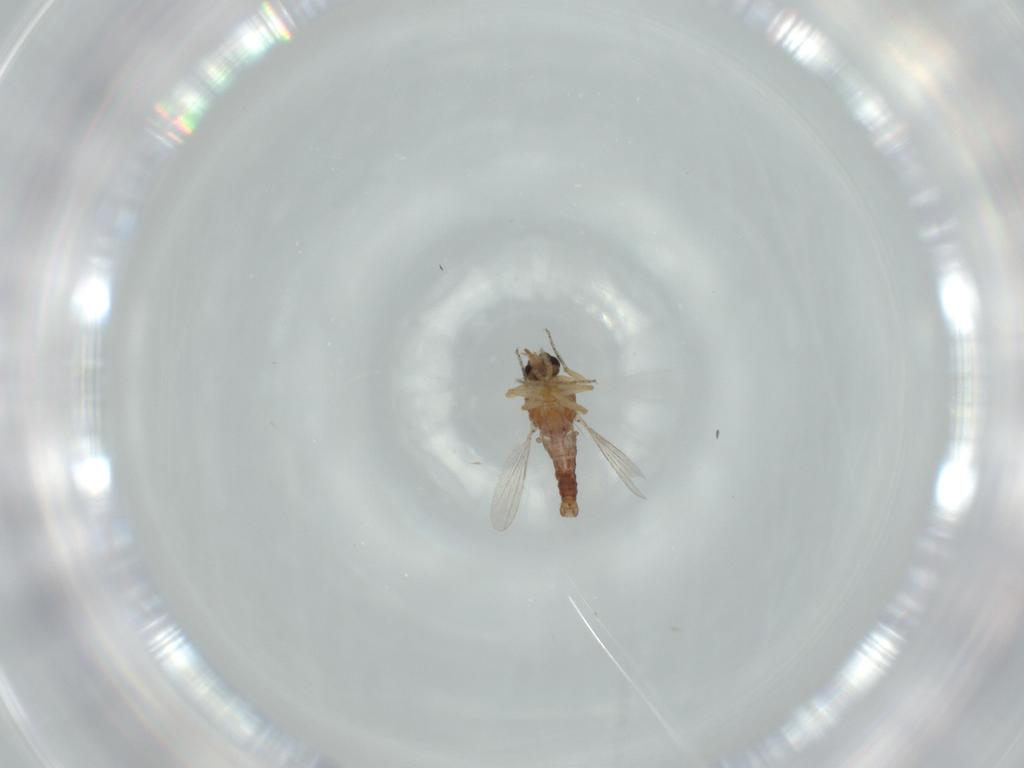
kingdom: Animalia
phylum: Arthropoda
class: Insecta
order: Diptera
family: Ceratopogonidae
